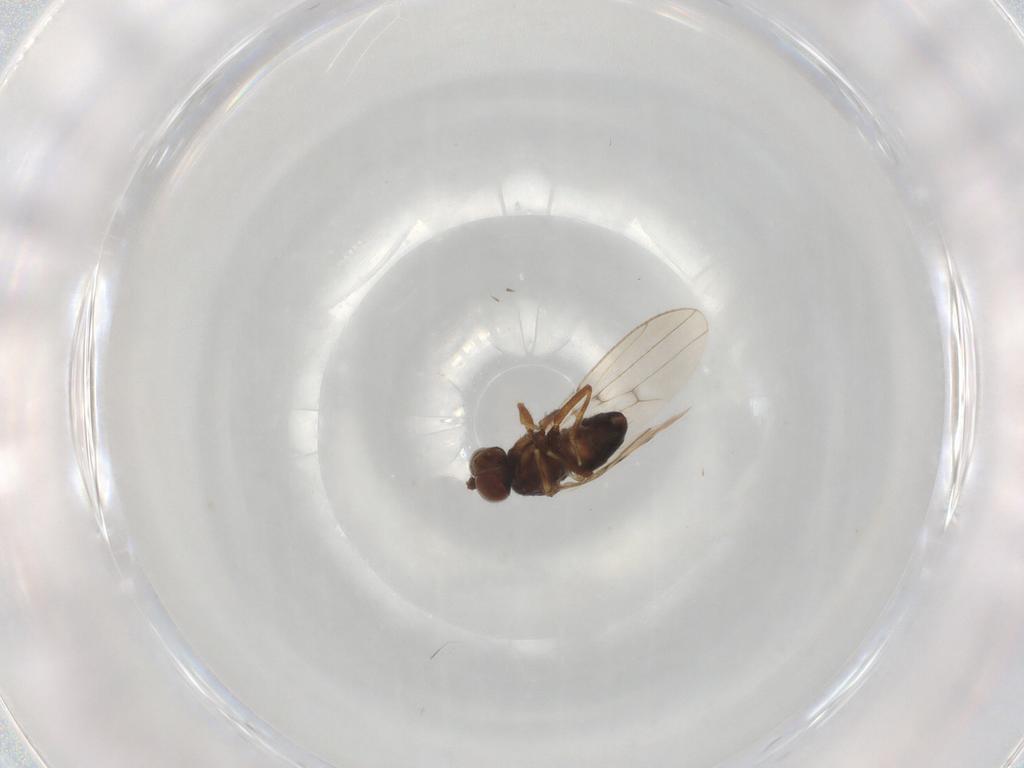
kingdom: Animalia
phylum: Arthropoda
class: Insecta
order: Diptera
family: Ephydridae
